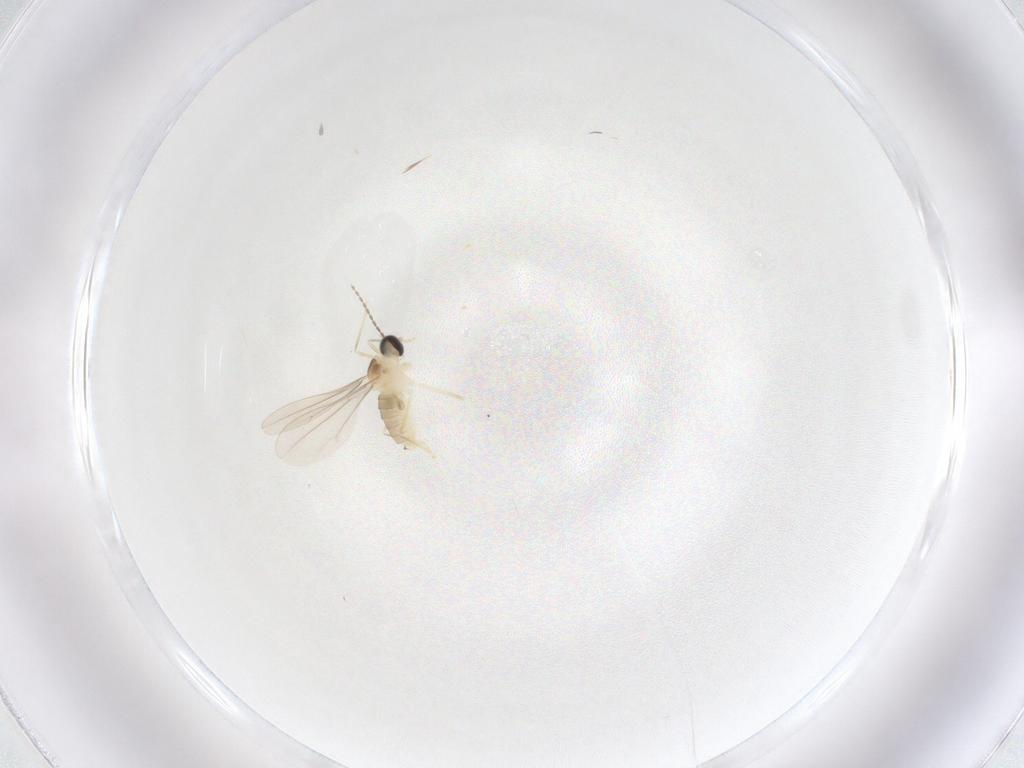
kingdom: Animalia
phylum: Arthropoda
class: Insecta
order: Diptera
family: Cecidomyiidae
